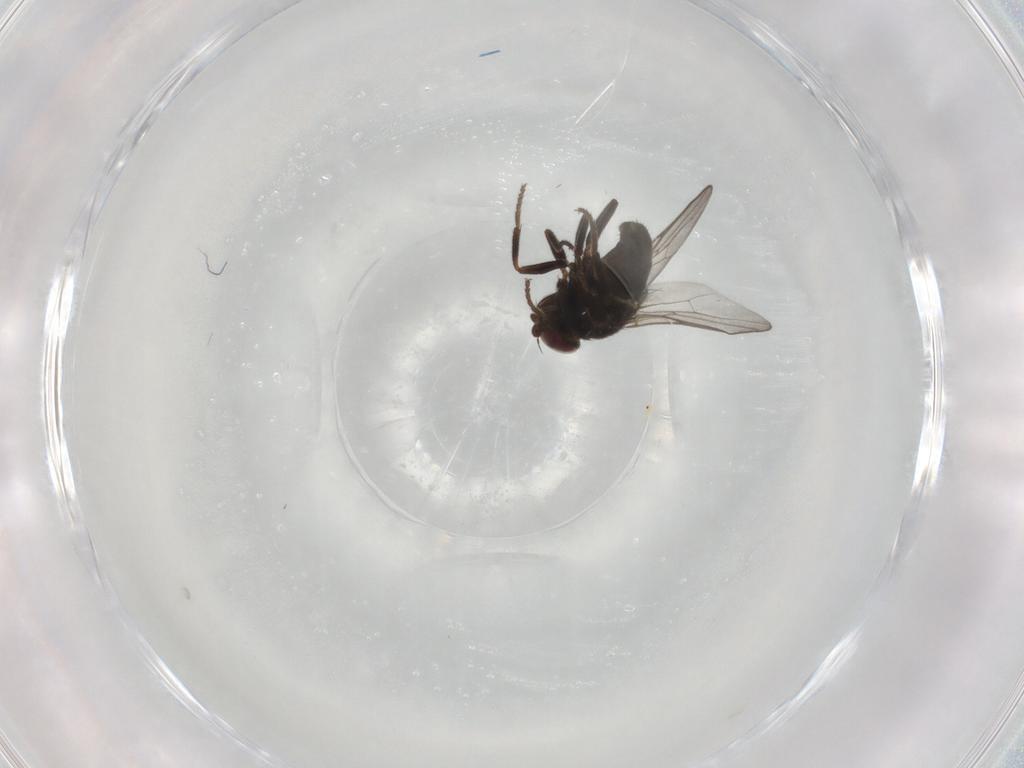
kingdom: Animalia
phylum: Arthropoda
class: Insecta
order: Diptera
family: Chloropidae
